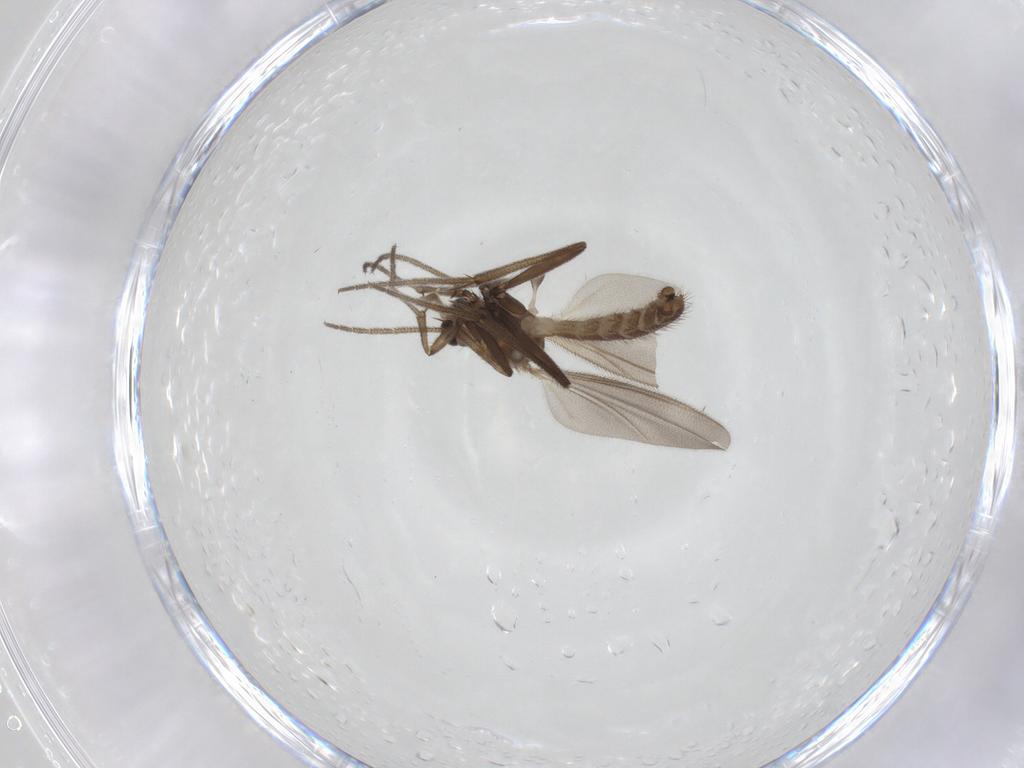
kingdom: Animalia
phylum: Arthropoda
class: Insecta
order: Diptera
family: Mycetophilidae
